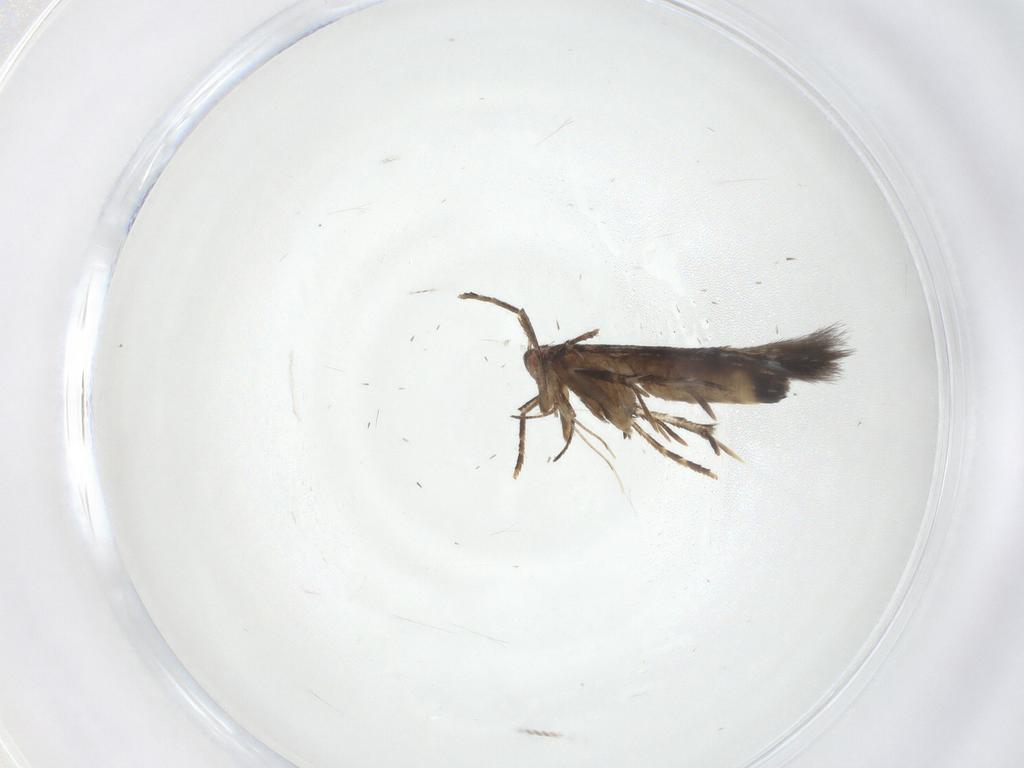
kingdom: Animalia
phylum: Arthropoda
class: Insecta
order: Lepidoptera
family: Cosmopterigidae
